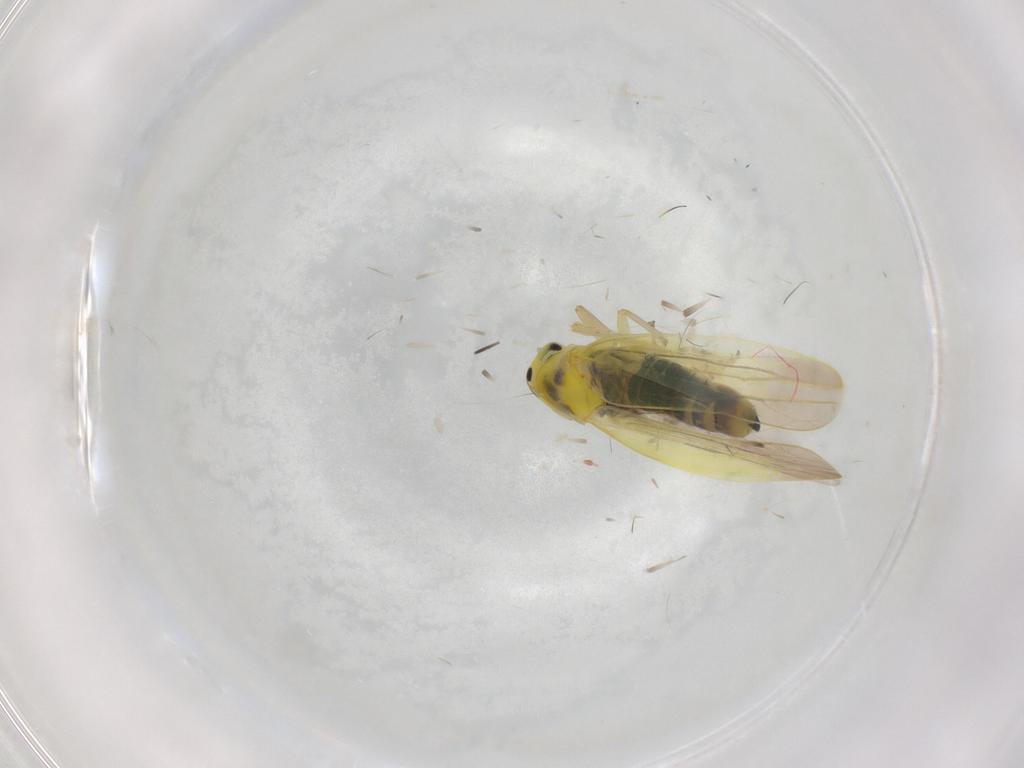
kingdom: Animalia
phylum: Arthropoda
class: Insecta
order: Hemiptera
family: Cicadellidae
